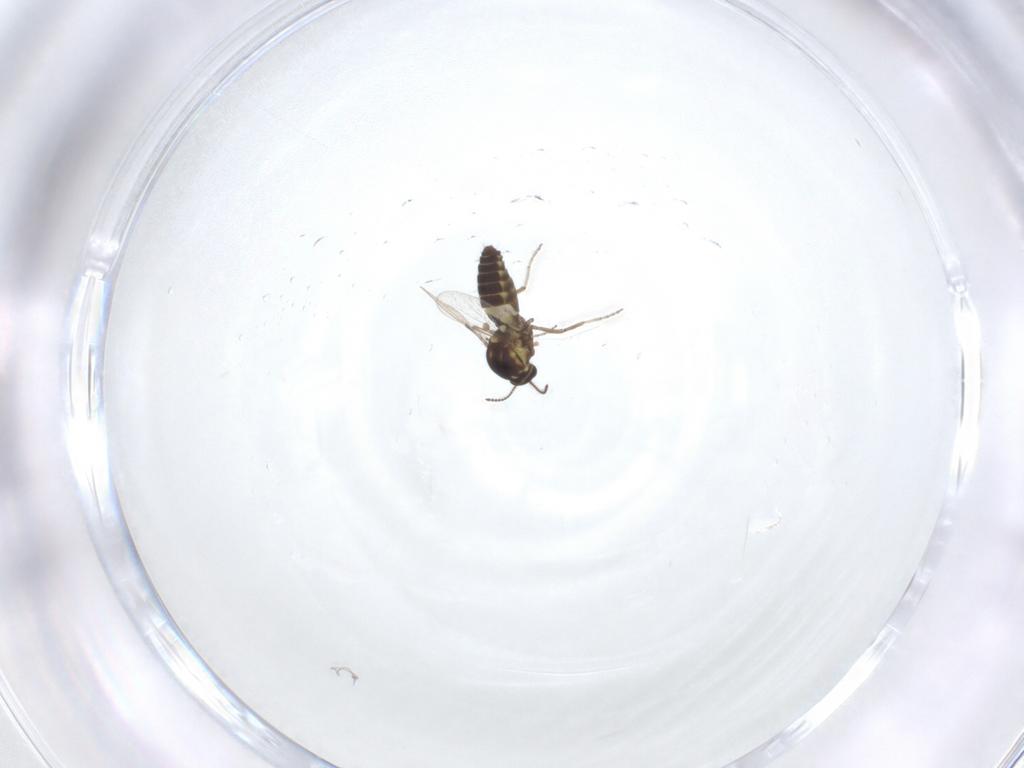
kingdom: Animalia
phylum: Arthropoda
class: Insecta
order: Diptera
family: Ceratopogonidae
